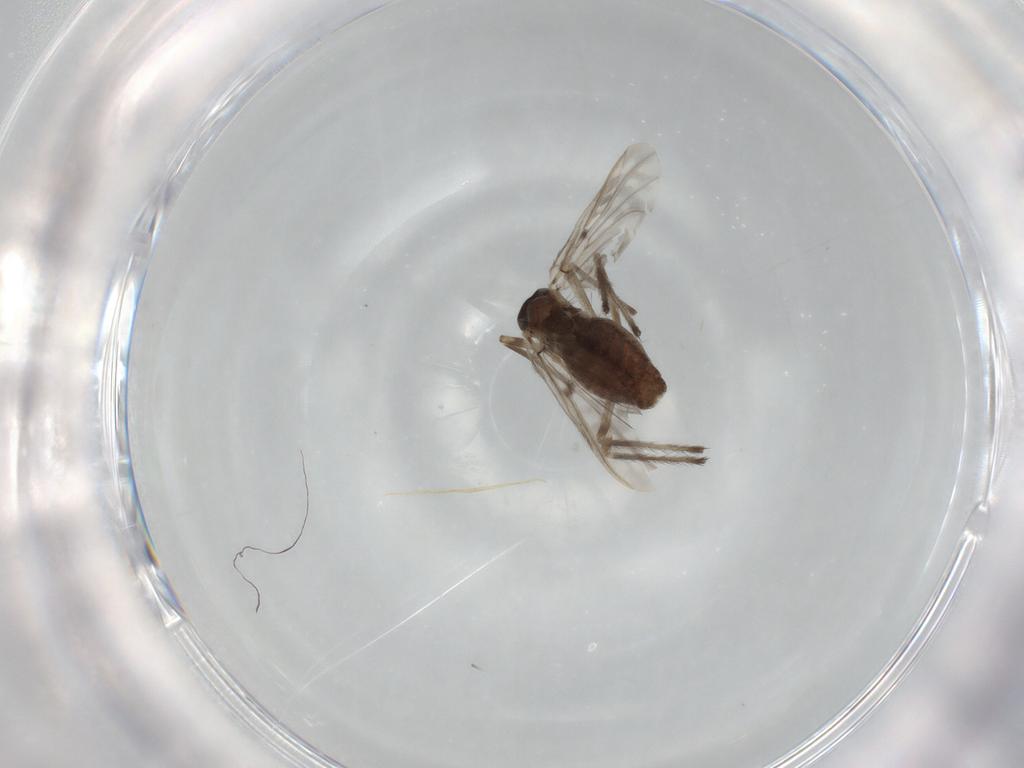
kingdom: Animalia
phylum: Arthropoda
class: Insecta
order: Diptera
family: Chironomidae
